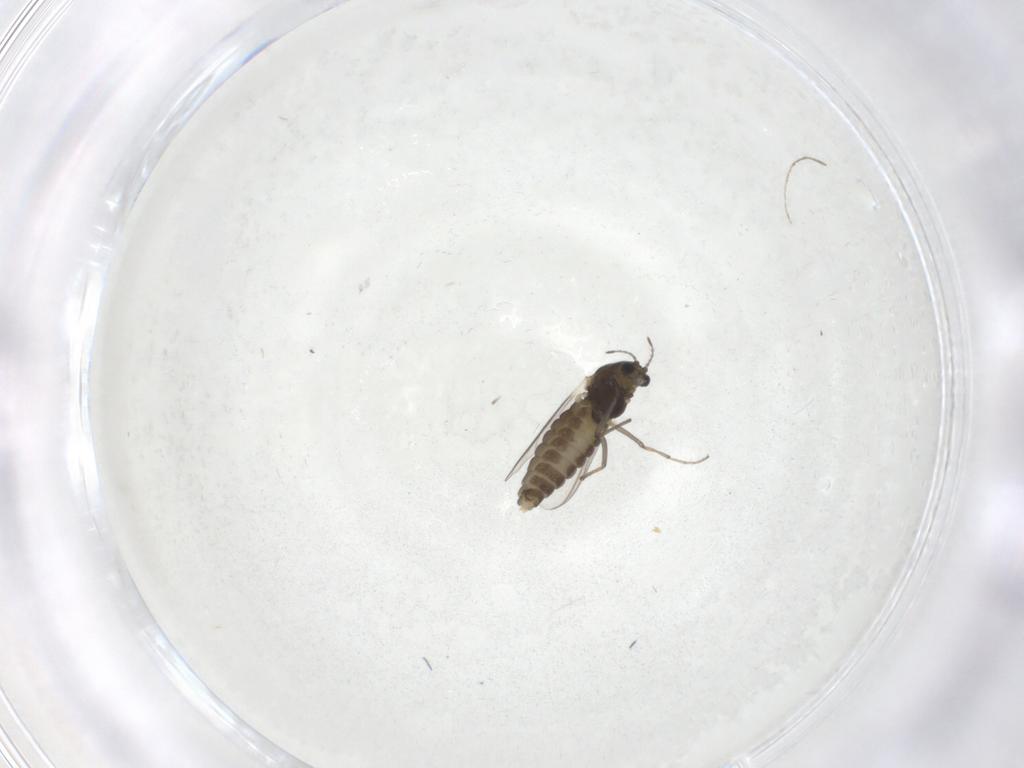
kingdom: Animalia
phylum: Arthropoda
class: Insecta
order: Diptera
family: Chironomidae
